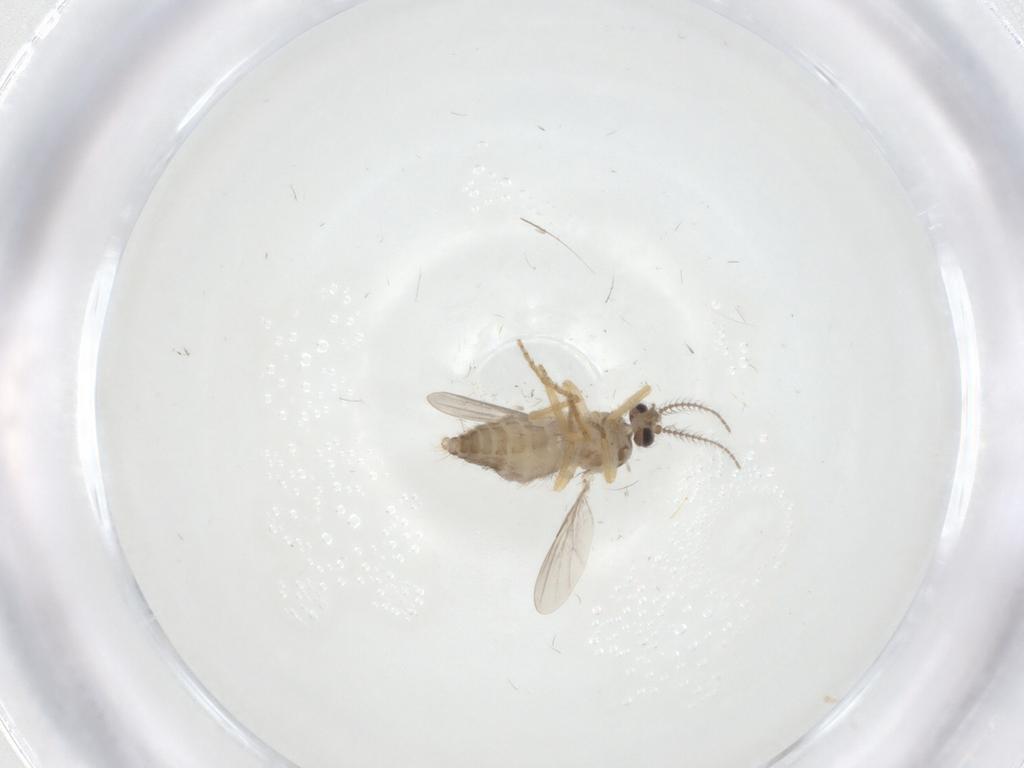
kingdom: Animalia
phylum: Arthropoda
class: Insecta
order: Diptera
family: Ceratopogonidae
